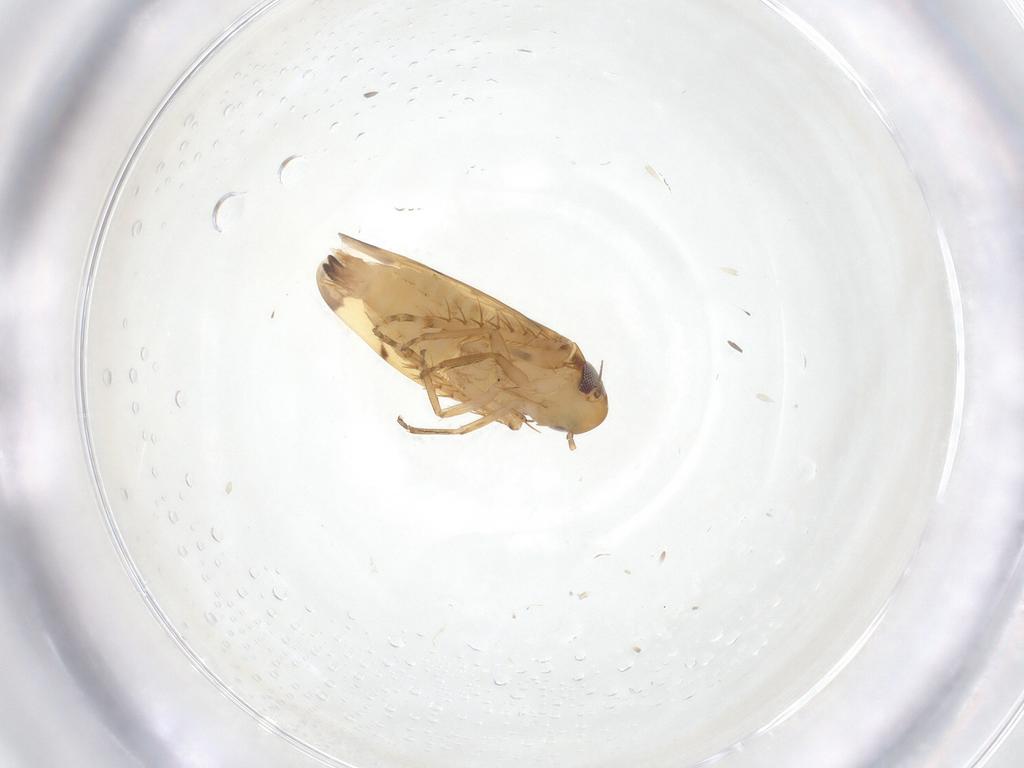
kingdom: Animalia
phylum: Arthropoda
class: Insecta
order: Hemiptera
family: Cicadellidae
